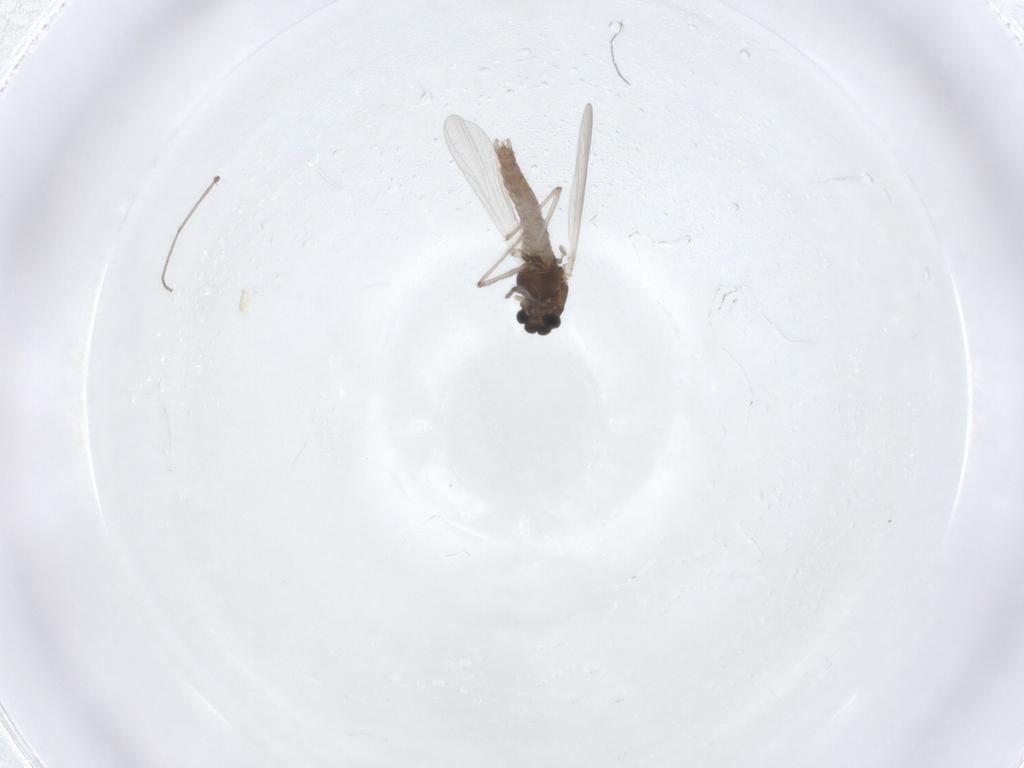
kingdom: Animalia
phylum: Arthropoda
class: Insecta
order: Diptera
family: Chironomidae
